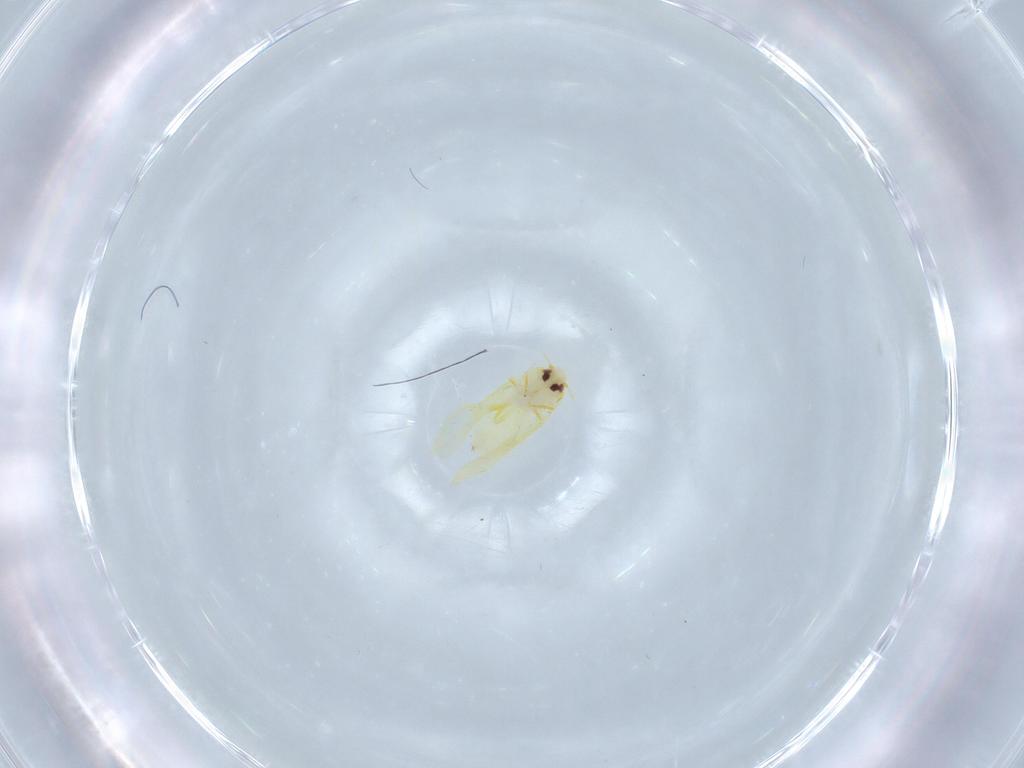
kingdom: Animalia
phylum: Arthropoda
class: Insecta
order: Hemiptera
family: Aleyrodidae
